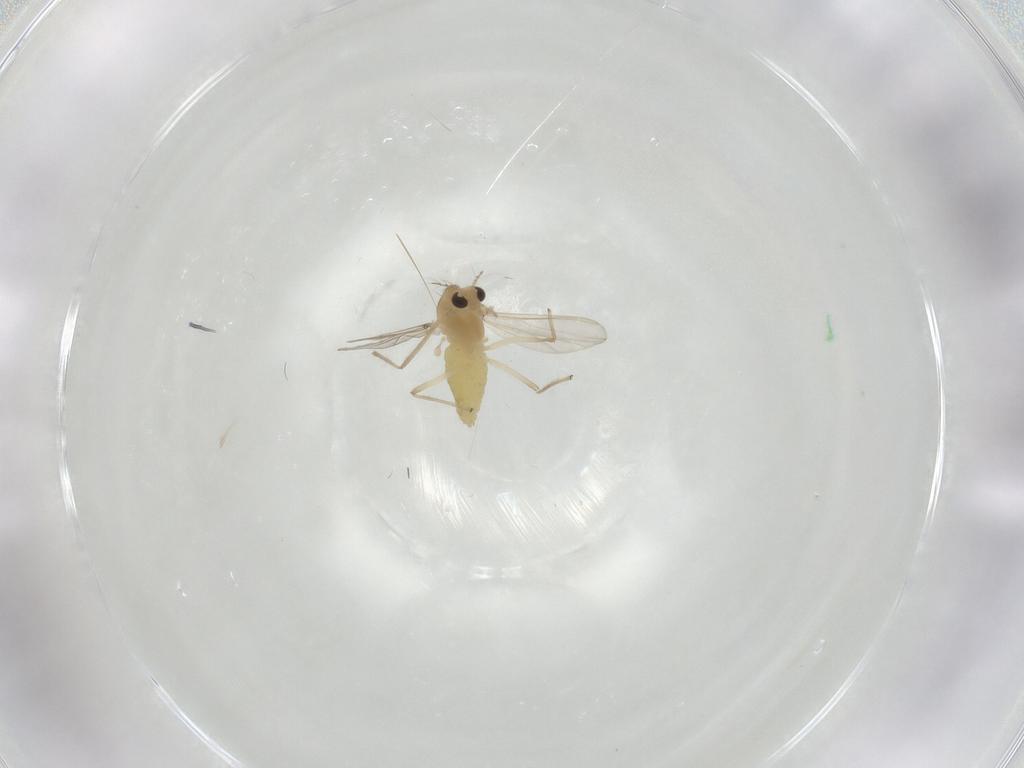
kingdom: Animalia
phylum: Arthropoda
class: Insecta
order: Diptera
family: Chironomidae
